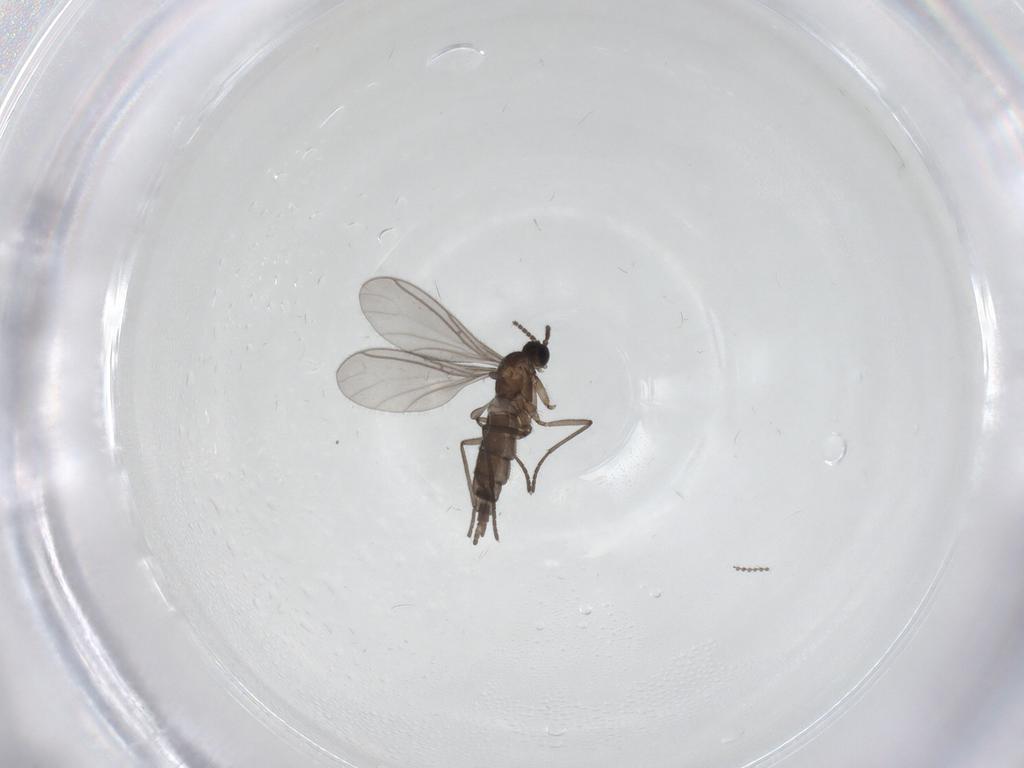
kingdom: Animalia
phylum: Arthropoda
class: Insecta
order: Diptera
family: Cecidomyiidae
